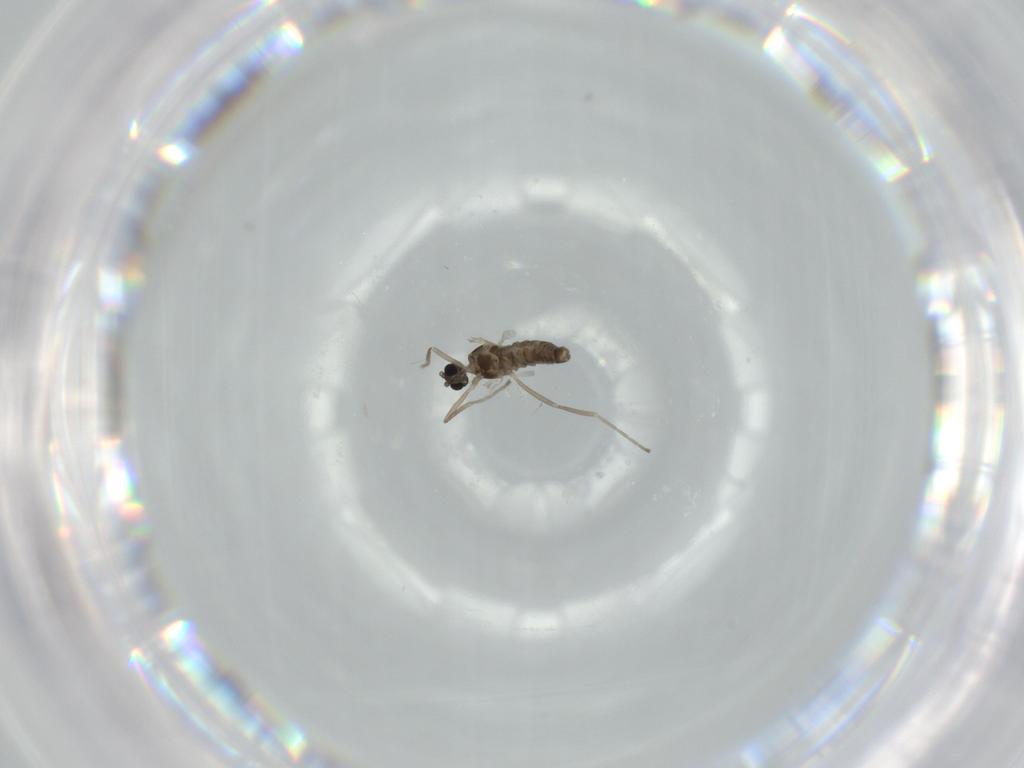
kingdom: Animalia
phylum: Arthropoda
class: Insecta
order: Diptera
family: Cecidomyiidae
